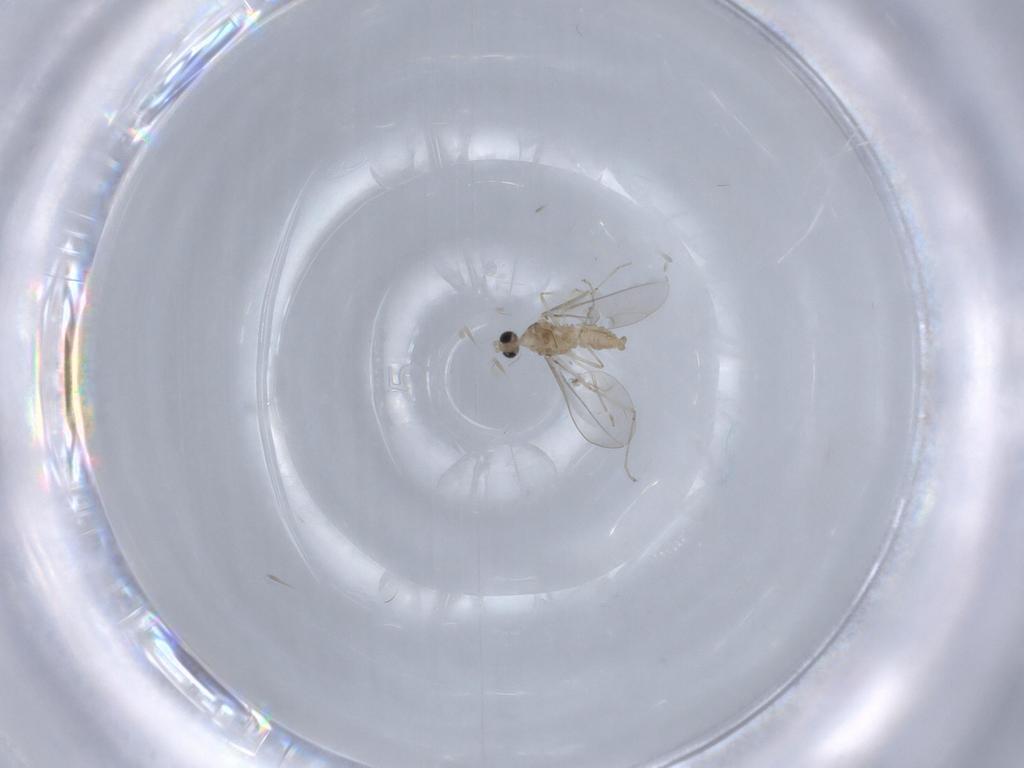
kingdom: Animalia
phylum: Arthropoda
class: Insecta
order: Diptera
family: Cecidomyiidae
